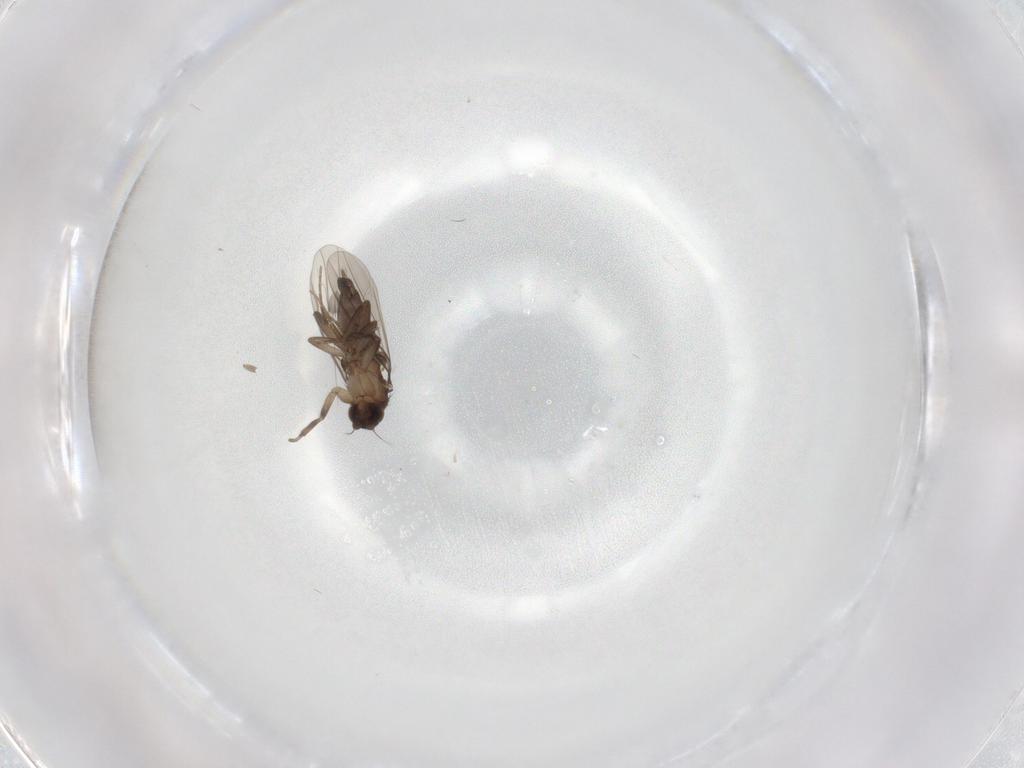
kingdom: Animalia
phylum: Arthropoda
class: Insecta
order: Diptera
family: Phoridae
